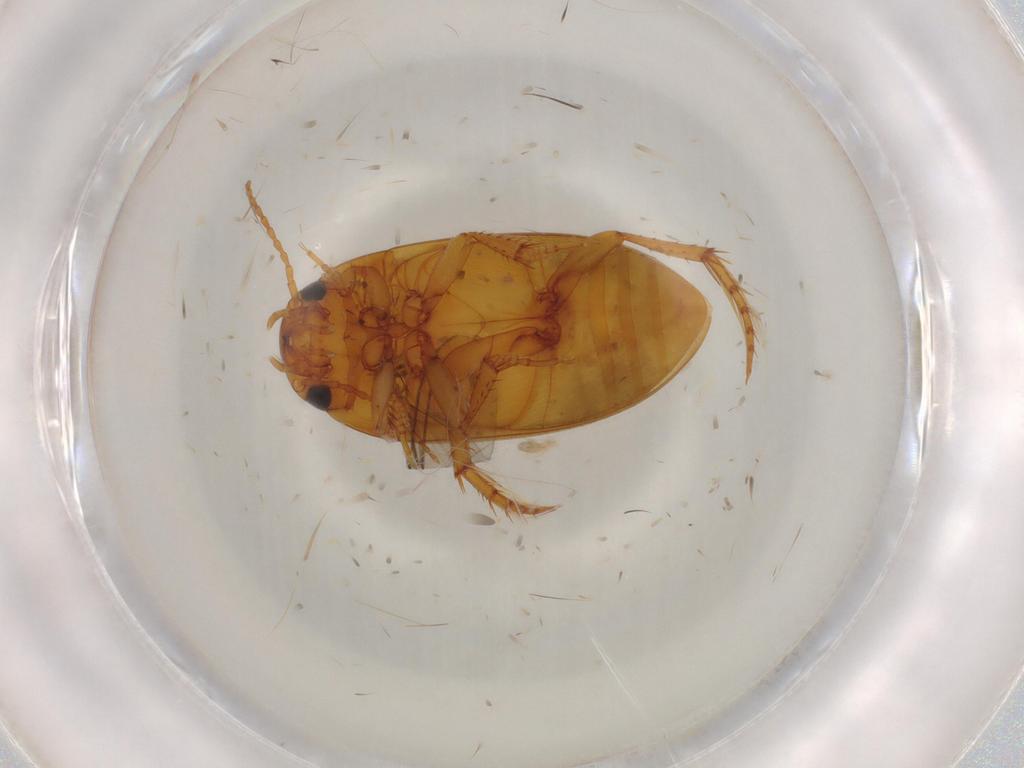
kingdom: Animalia
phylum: Arthropoda
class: Insecta
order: Coleoptera
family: Dytiscidae
